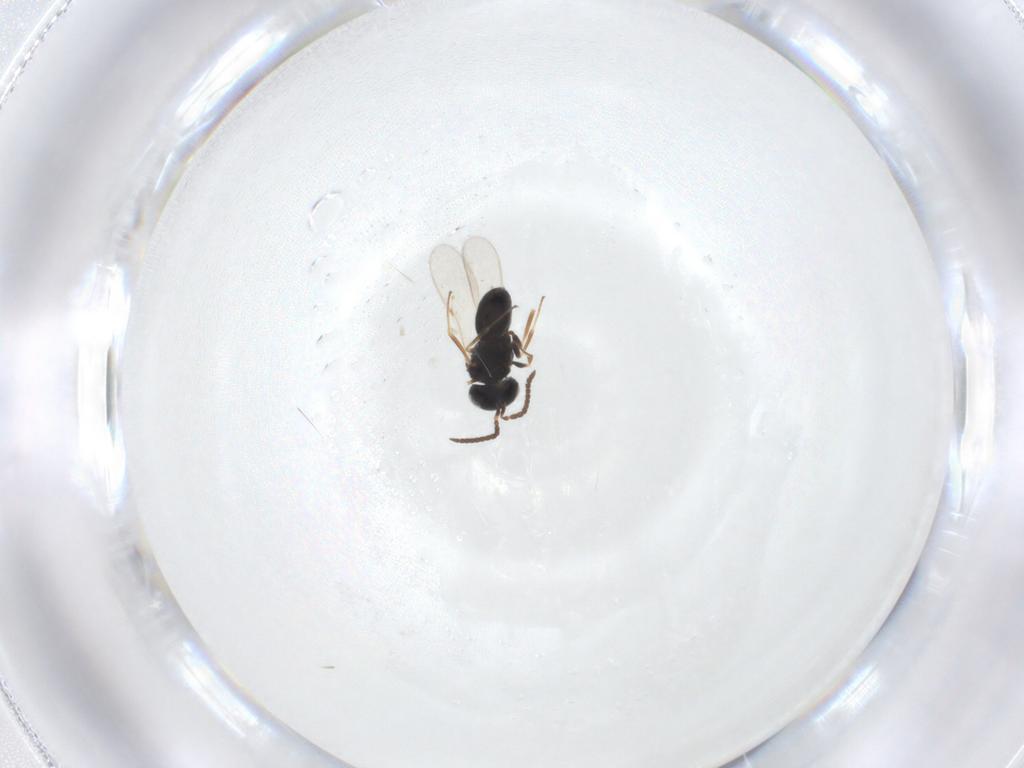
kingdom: Animalia
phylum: Arthropoda
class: Insecta
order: Hymenoptera
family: Scelionidae
